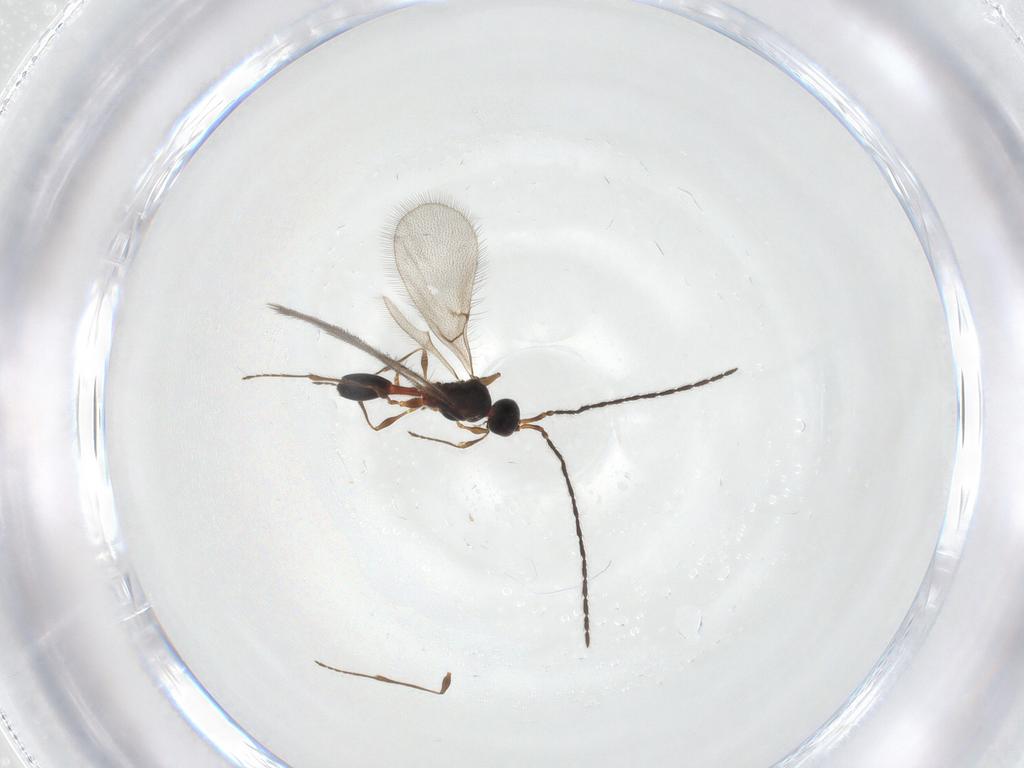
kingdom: Animalia
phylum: Arthropoda
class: Insecta
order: Hymenoptera
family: Diapriidae
